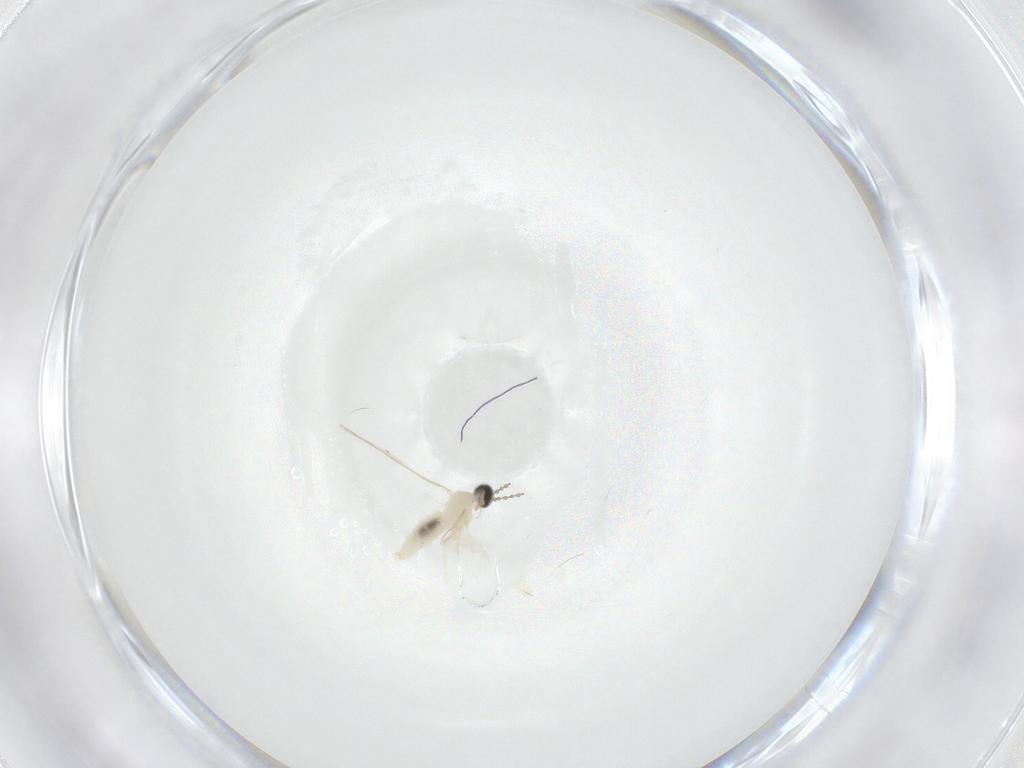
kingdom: Animalia
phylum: Arthropoda
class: Insecta
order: Diptera
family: Cecidomyiidae
